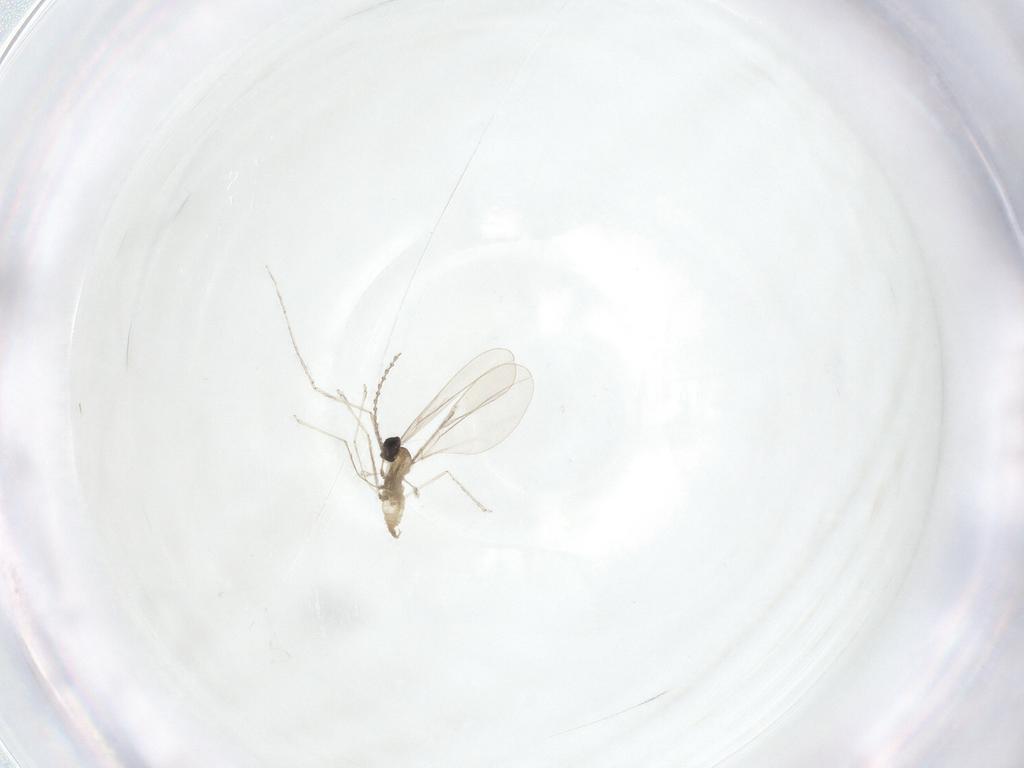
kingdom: Animalia
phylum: Arthropoda
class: Insecta
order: Diptera
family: Cecidomyiidae
